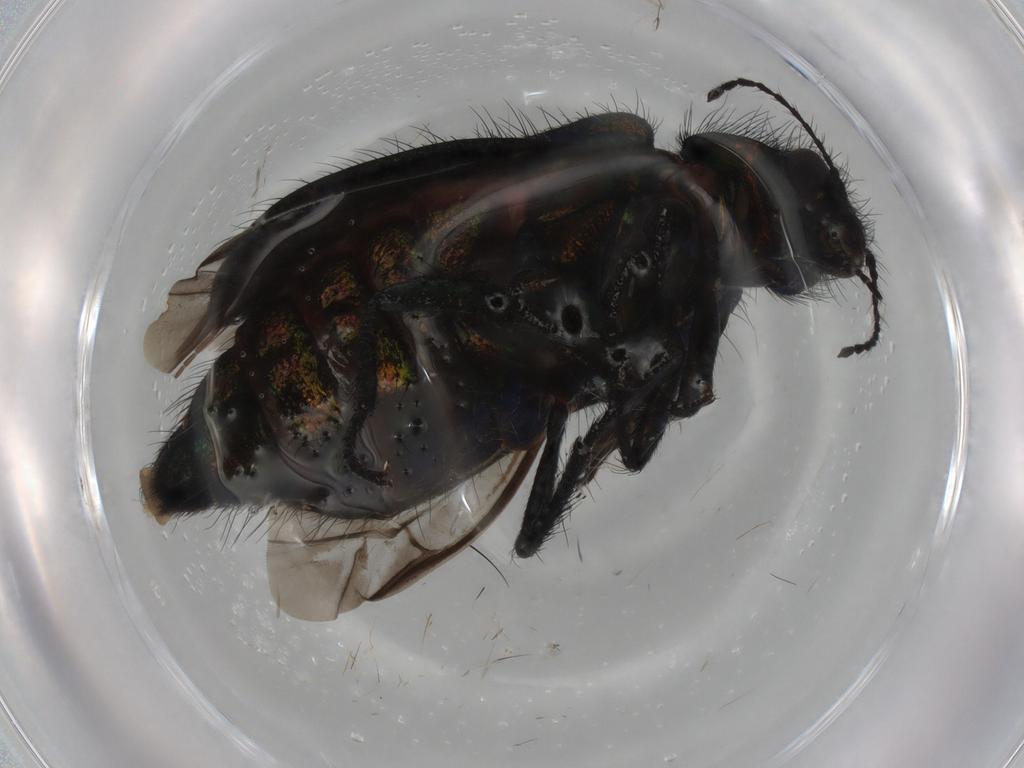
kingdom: Animalia
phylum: Arthropoda
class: Insecta
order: Coleoptera
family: Melyridae
